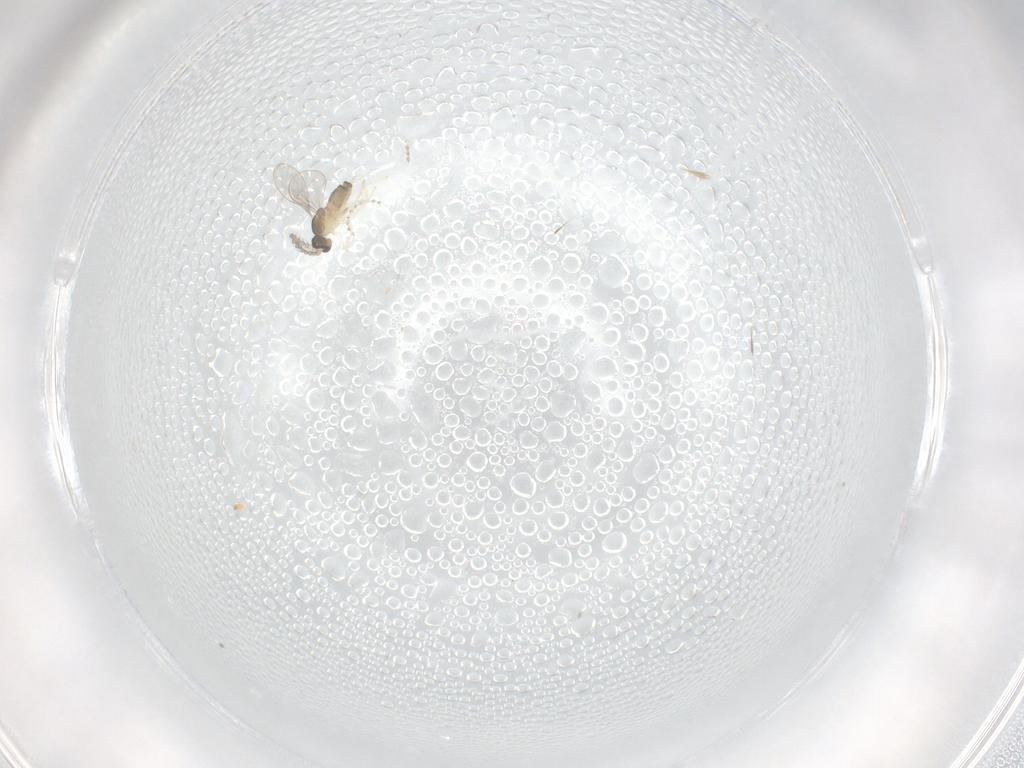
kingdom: Animalia
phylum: Arthropoda
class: Insecta
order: Diptera
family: Cecidomyiidae
